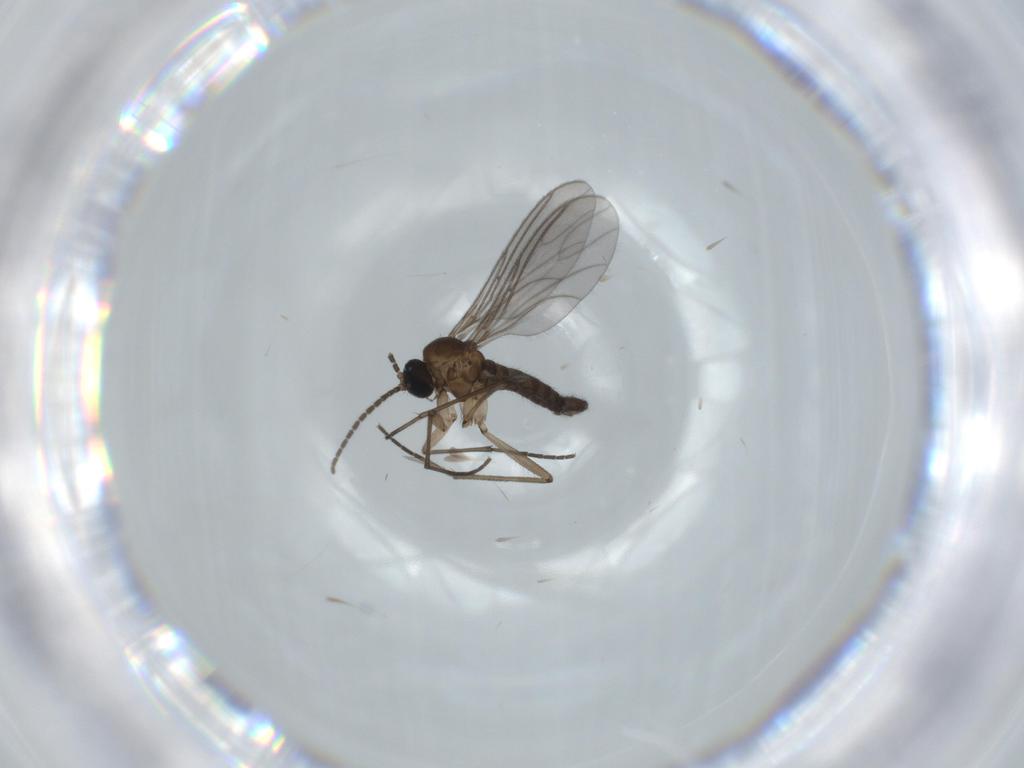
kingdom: Animalia
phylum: Arthropoda
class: Insecta
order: Diptera
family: Sciaridae
